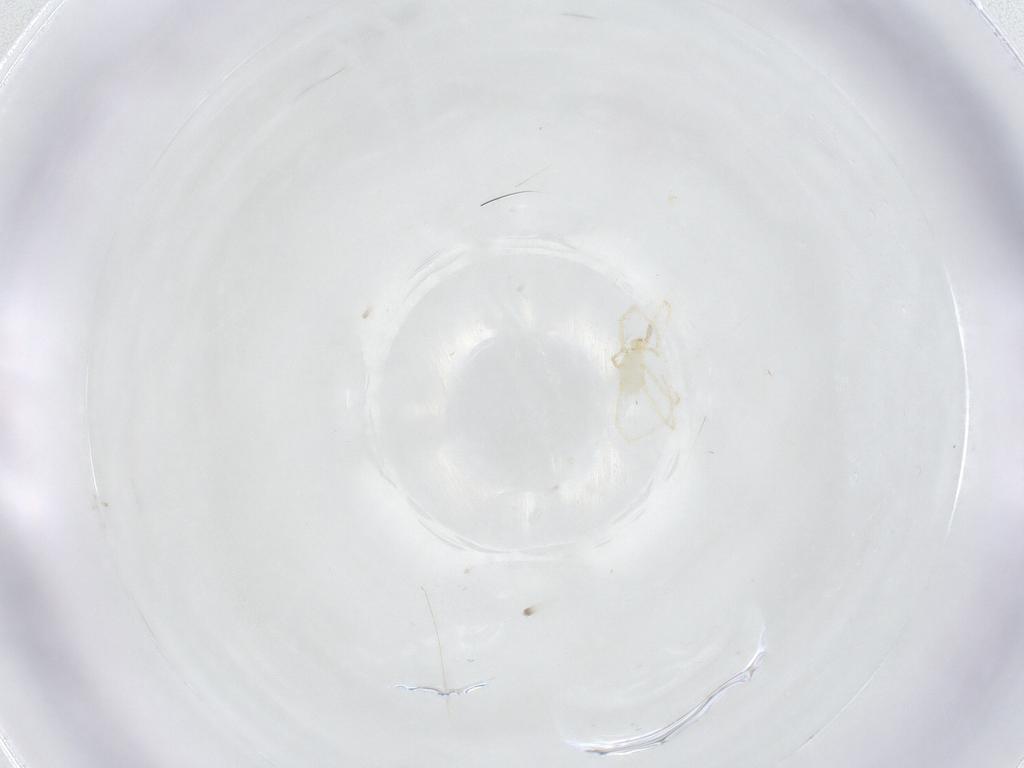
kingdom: Animalia
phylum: Arthropoda
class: Arachnida
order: Trombidiformes
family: Erythraeidae
